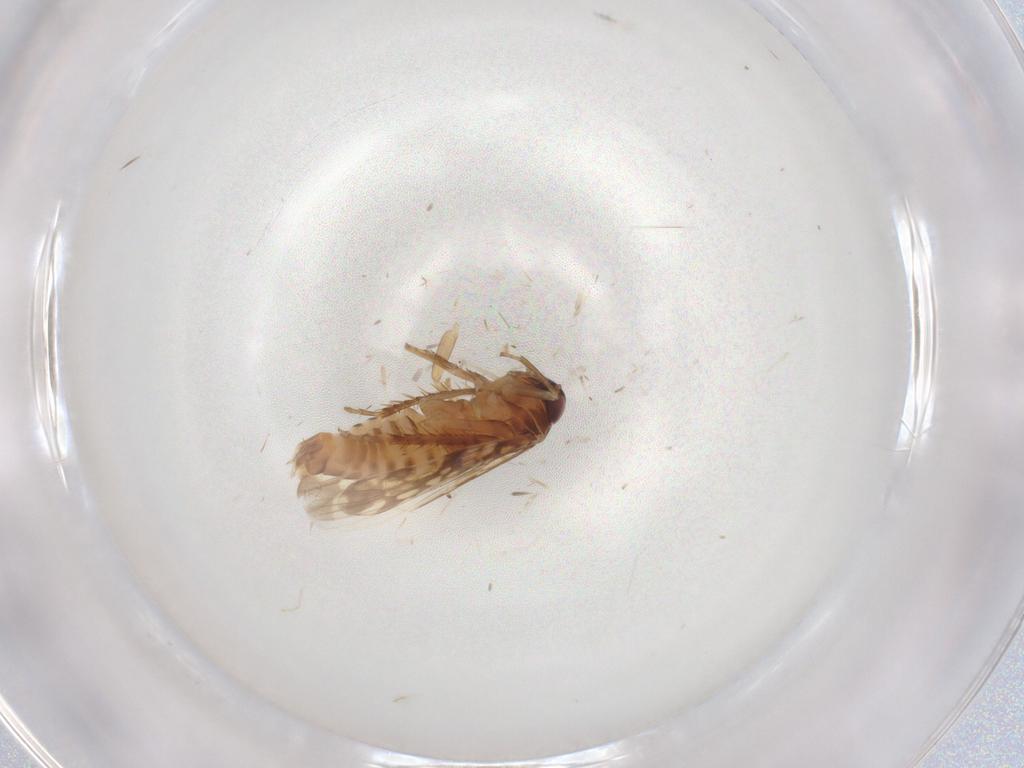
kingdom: Animalia
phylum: Arthropoda
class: Insecta
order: Hemiptera
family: Cicadellidae
